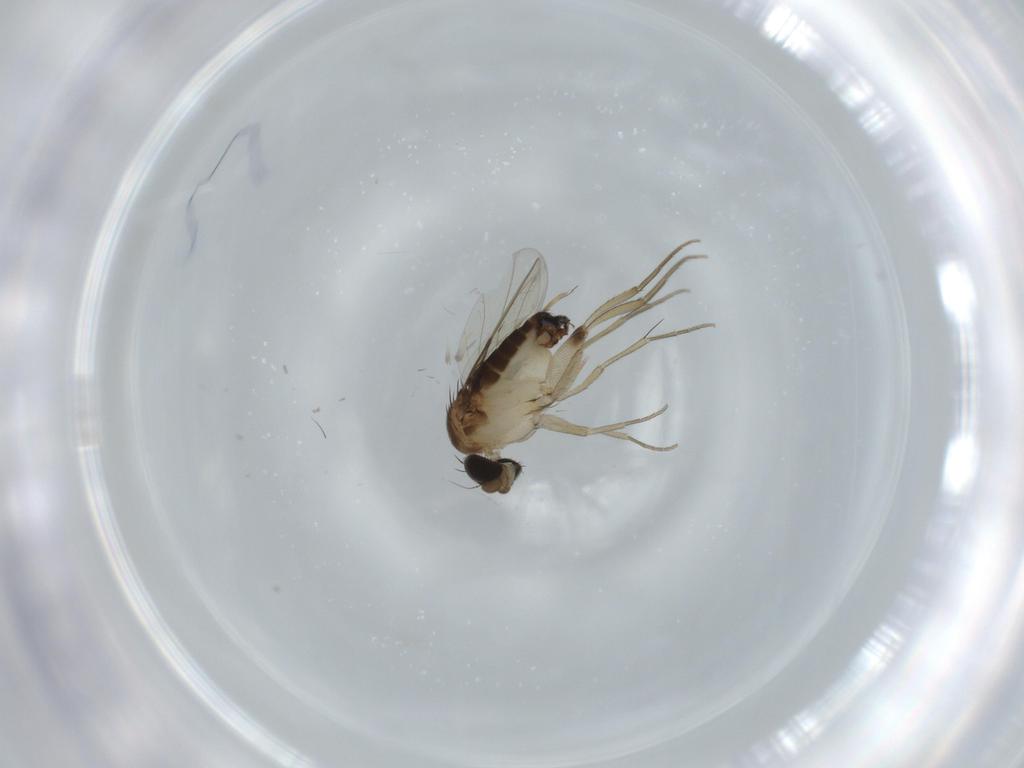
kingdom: Animalia
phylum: Arthropoda
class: Insecta
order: Diptera
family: Phoridae
